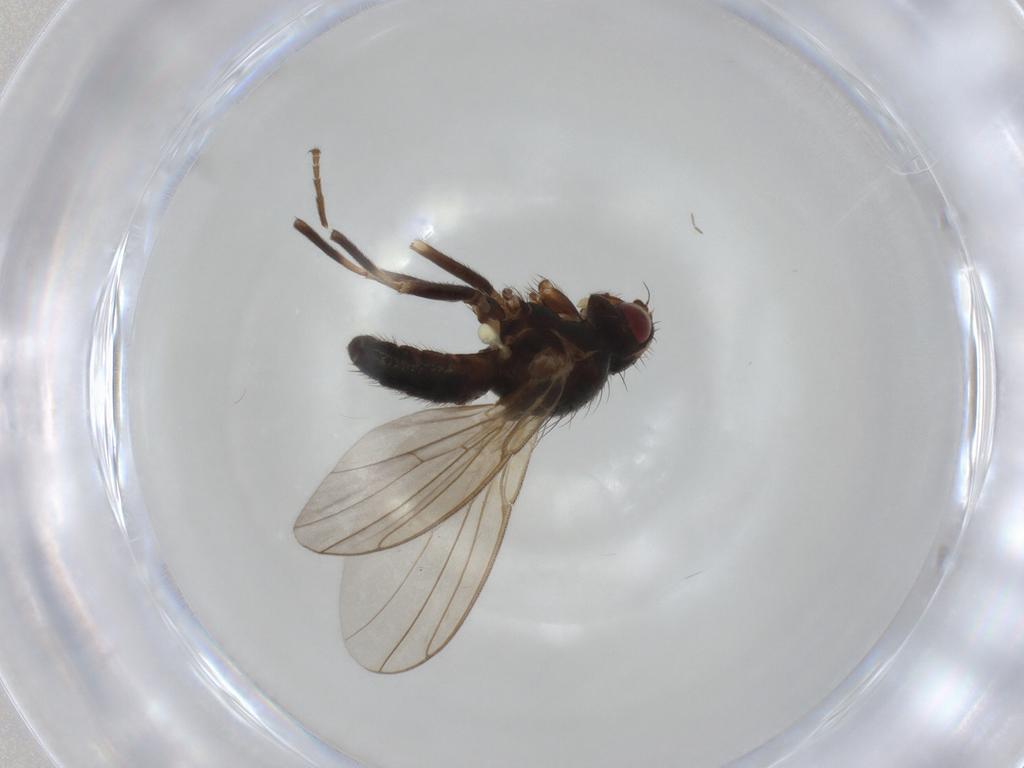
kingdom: Animalia
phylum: Arthropoda
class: Insecta
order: Diptera
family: Agromyzidae
